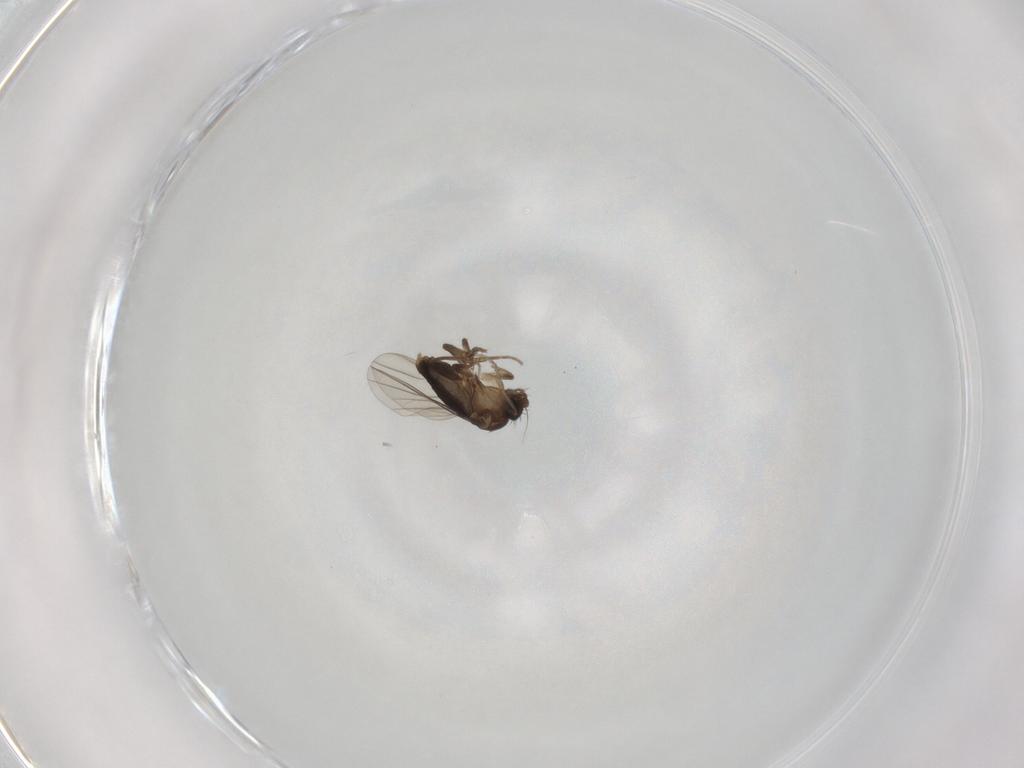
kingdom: Animalia
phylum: Arthropoda
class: Insecta
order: Diptera
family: Phoridae
